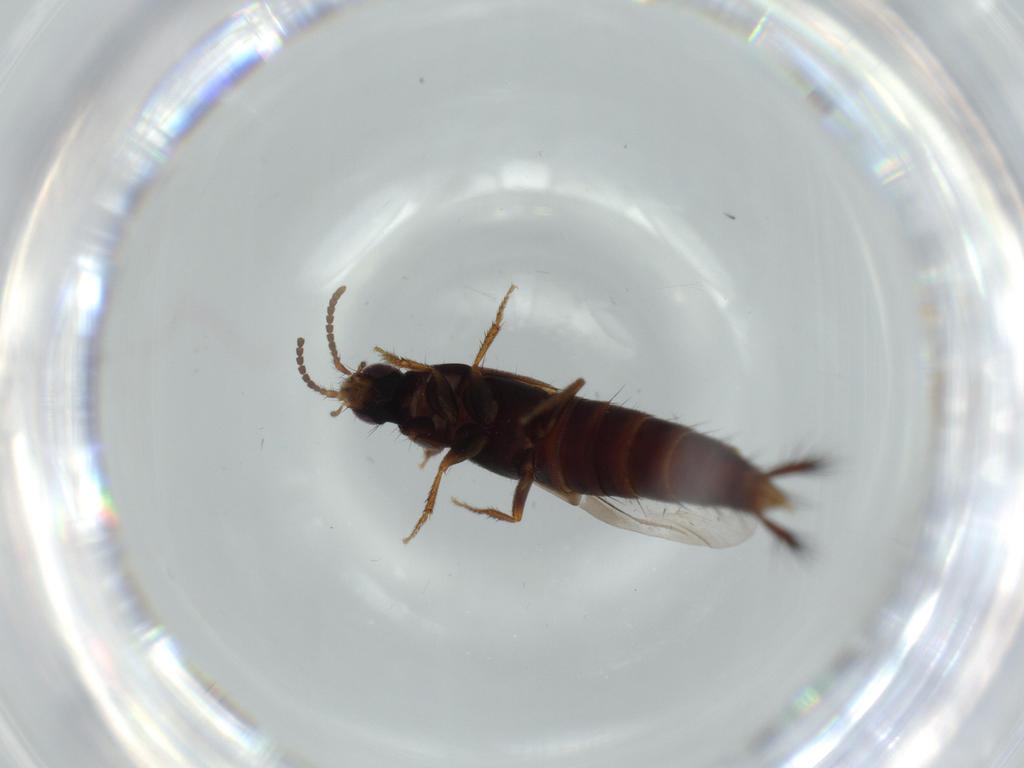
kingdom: Animalia
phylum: Arthropoda
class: Insecta
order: Coleoptera
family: Staphylinidae
